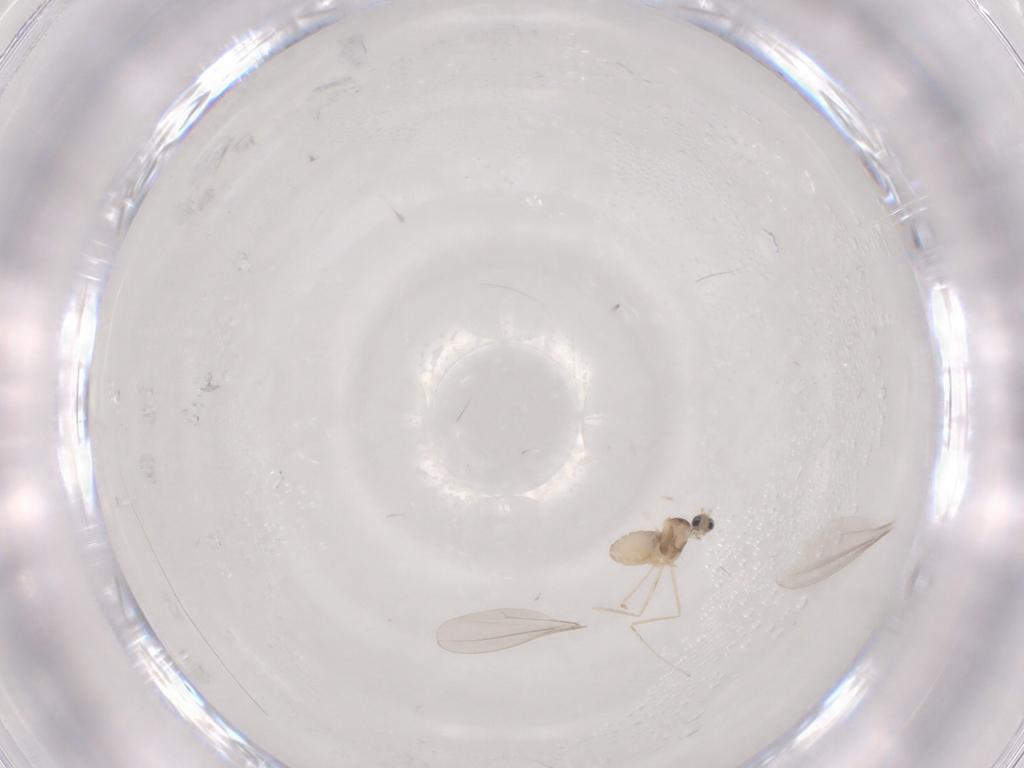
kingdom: Animalia
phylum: Arthropoda
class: Insecta
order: Diptera
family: Cecidomyiidae
